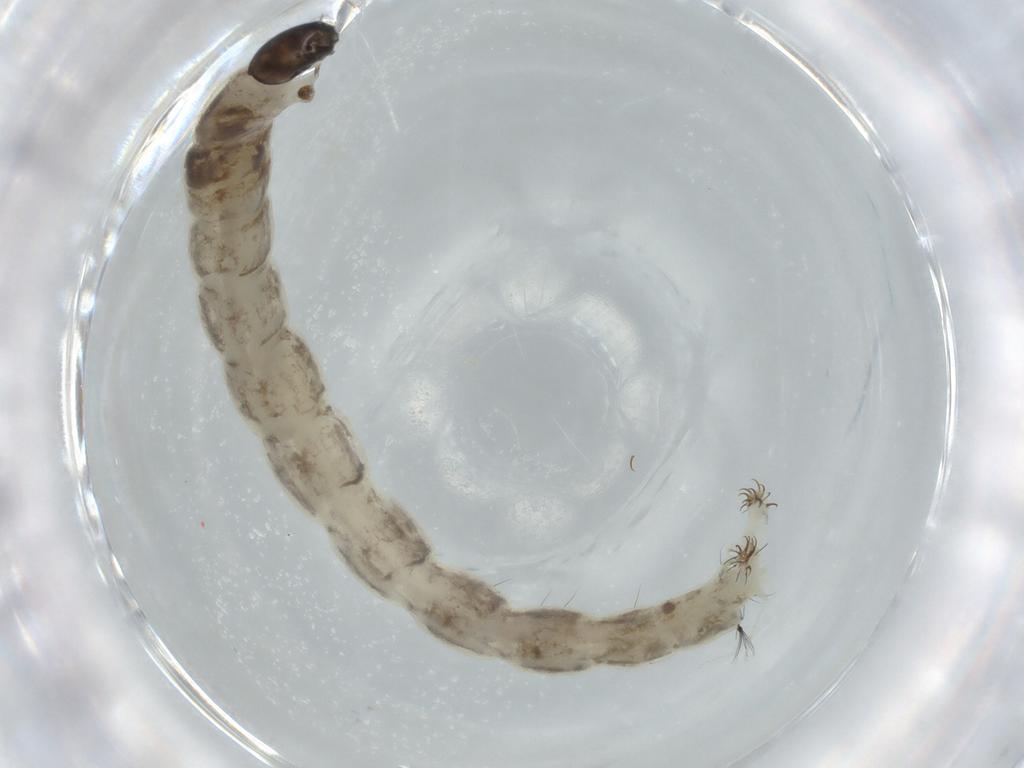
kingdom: Animalia
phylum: Arthropoda
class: Insecta
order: Diptera
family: Chironomidae
